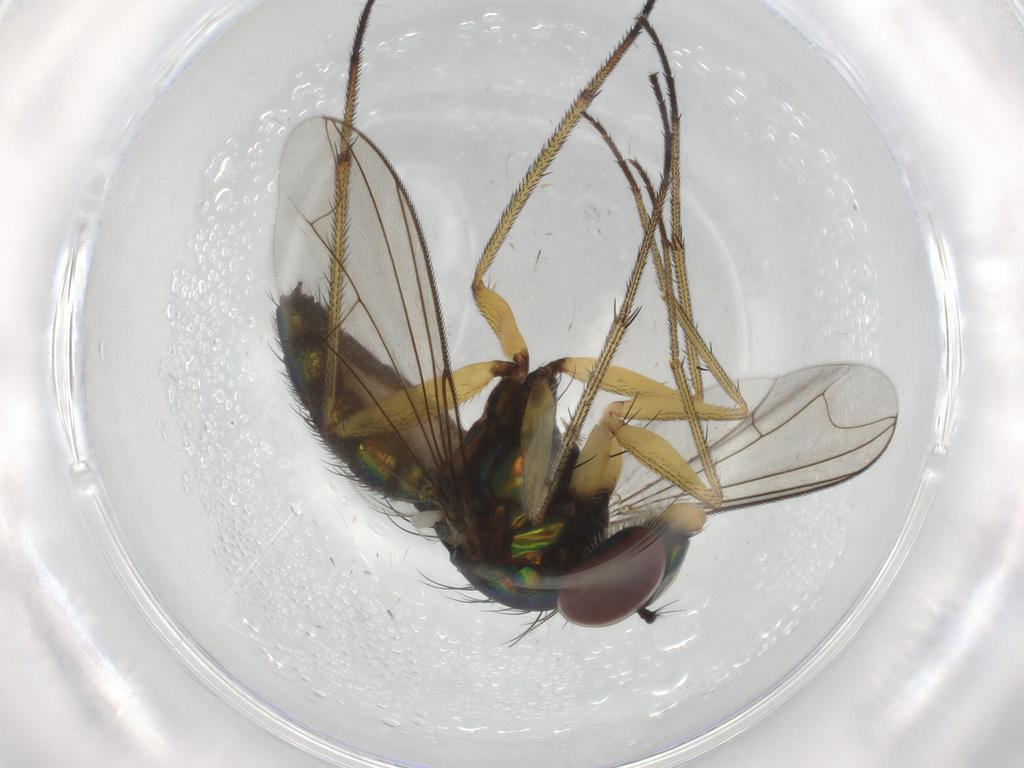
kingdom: Animalia
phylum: Arthropoda
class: Insecta
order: Diptera
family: Dolichopodidae
